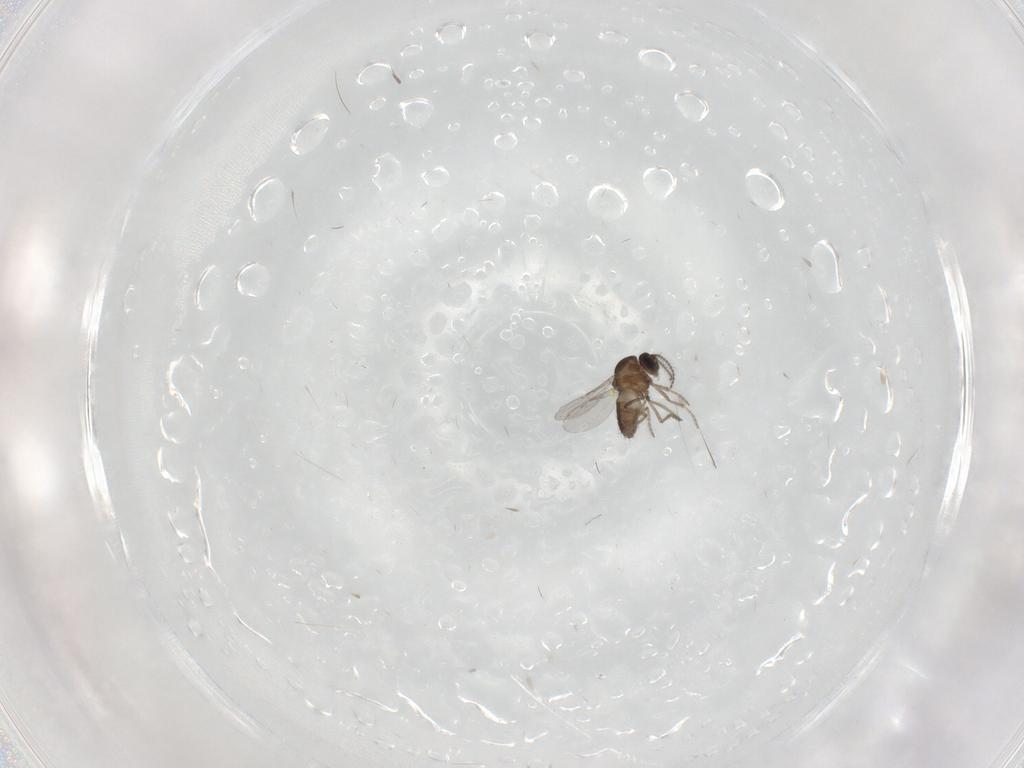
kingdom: Animalia
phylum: Arthropoda
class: Insecta
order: Diptera
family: Ceratopogonidae
